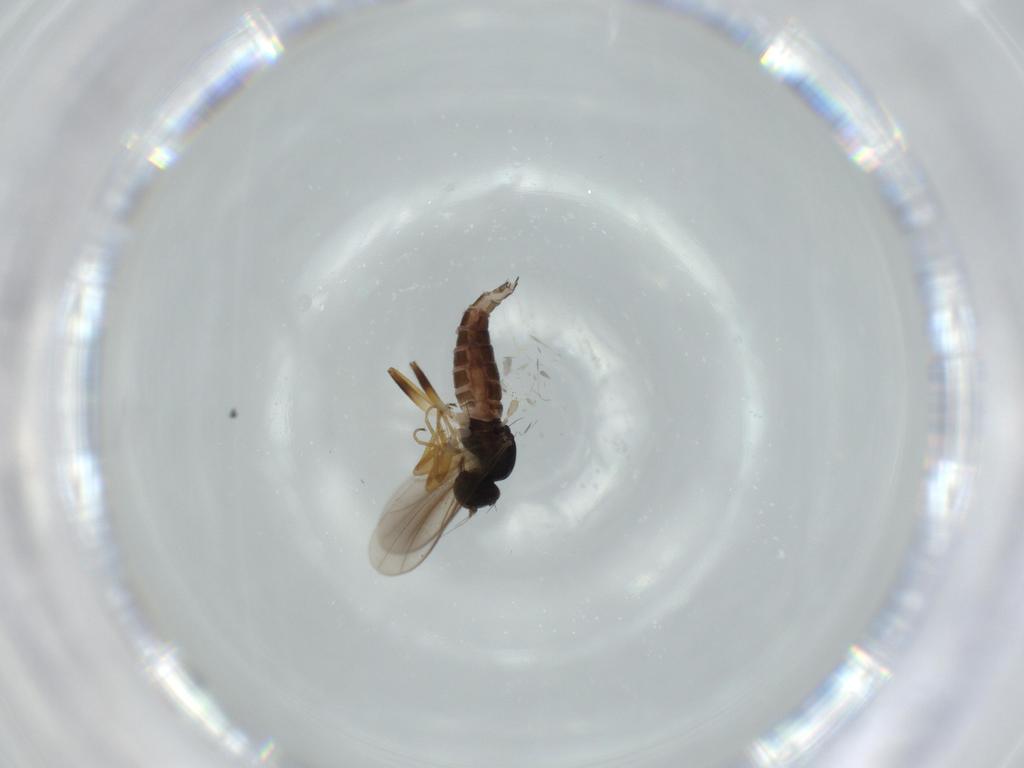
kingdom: Animalia
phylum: Arthropoda
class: Insecta
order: Diptera
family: Hybotidae
